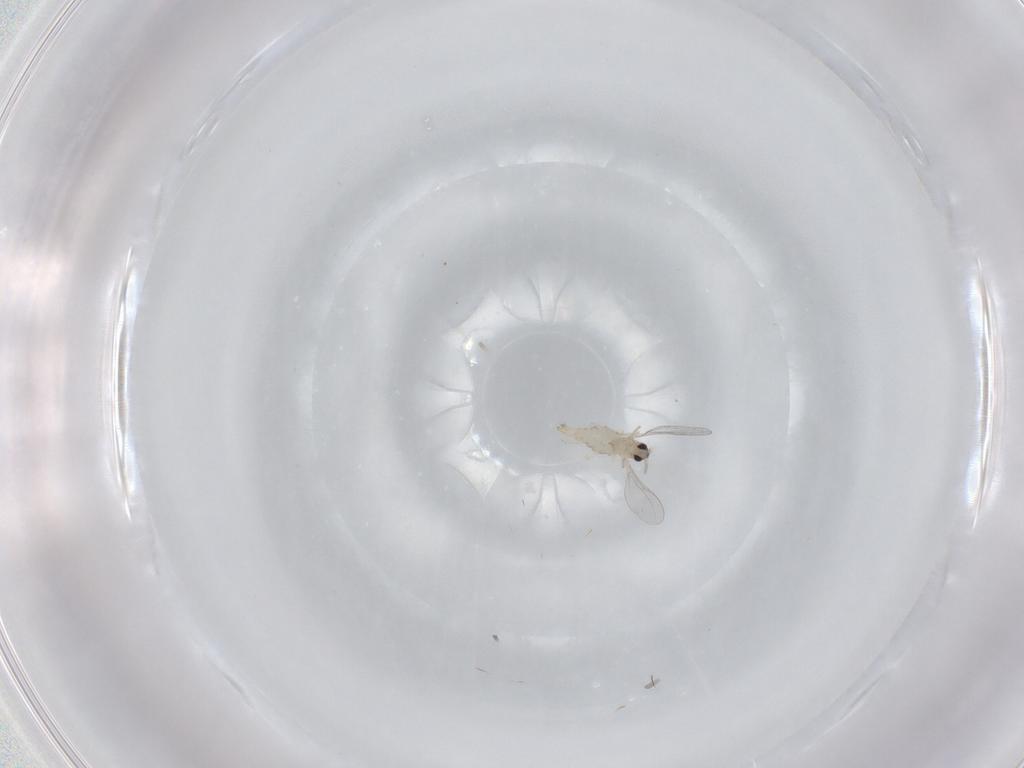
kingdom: Animalia
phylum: Arthropoda
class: Insecta
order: Diptera
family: Cecidomyiidae
